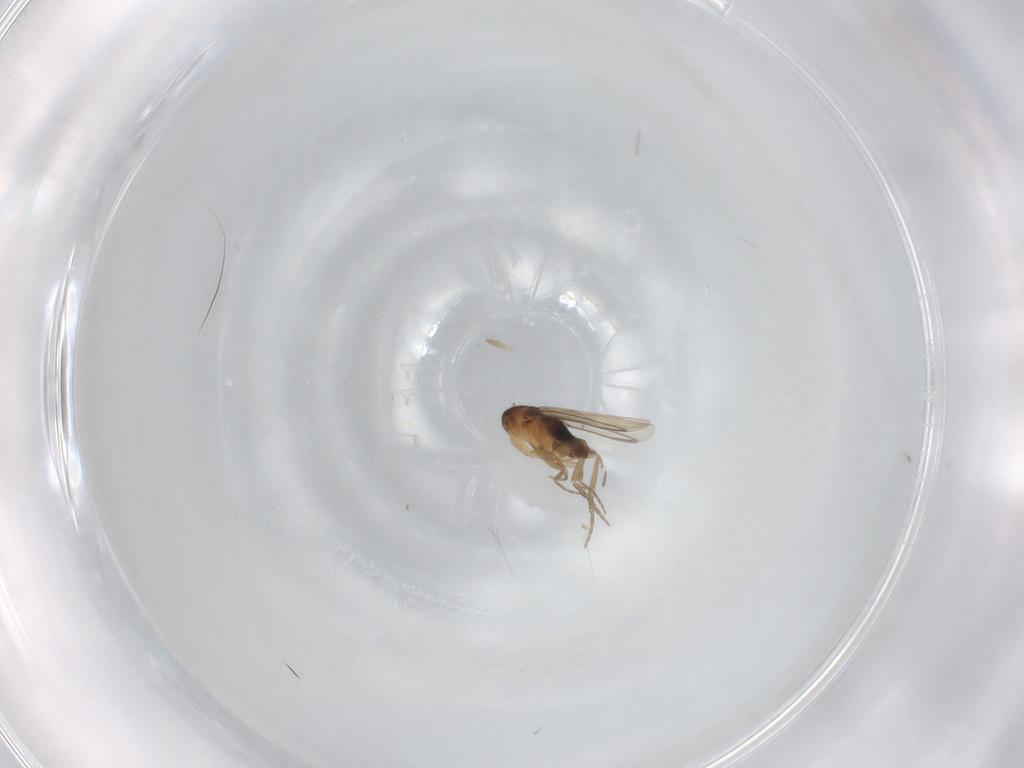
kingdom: Animalia
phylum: Arthropoda
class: Insecta
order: Diptera
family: Phoridae
